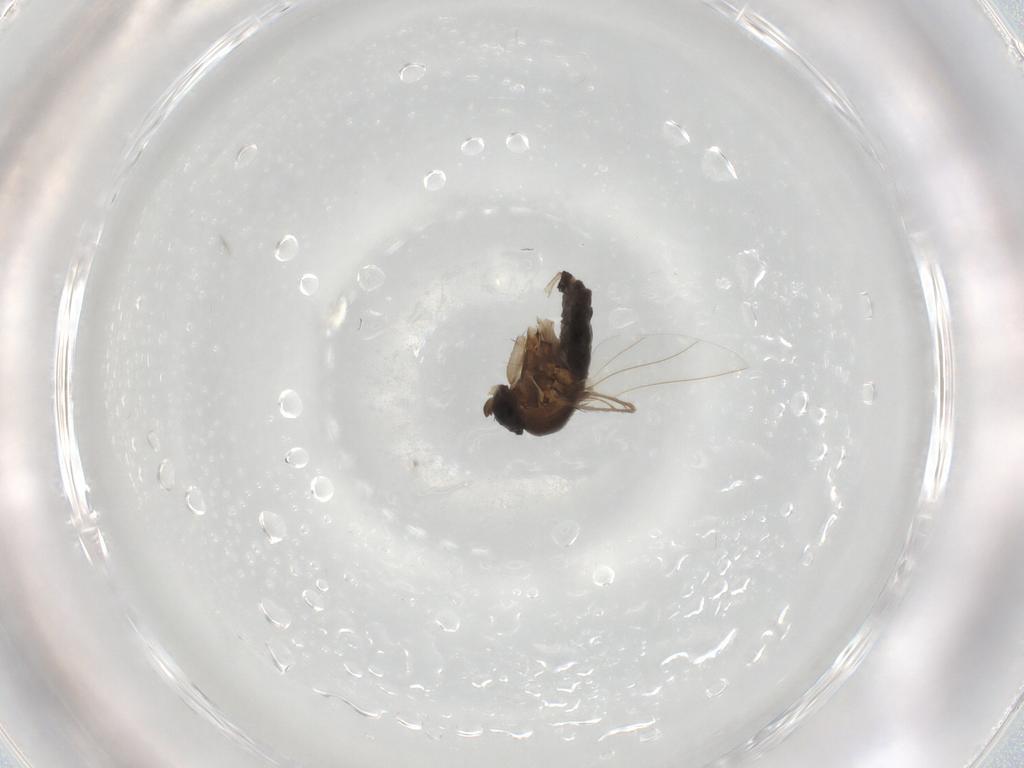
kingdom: Animalia
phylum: Arthropoda
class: Insecta
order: Diptera
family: Phoridae
